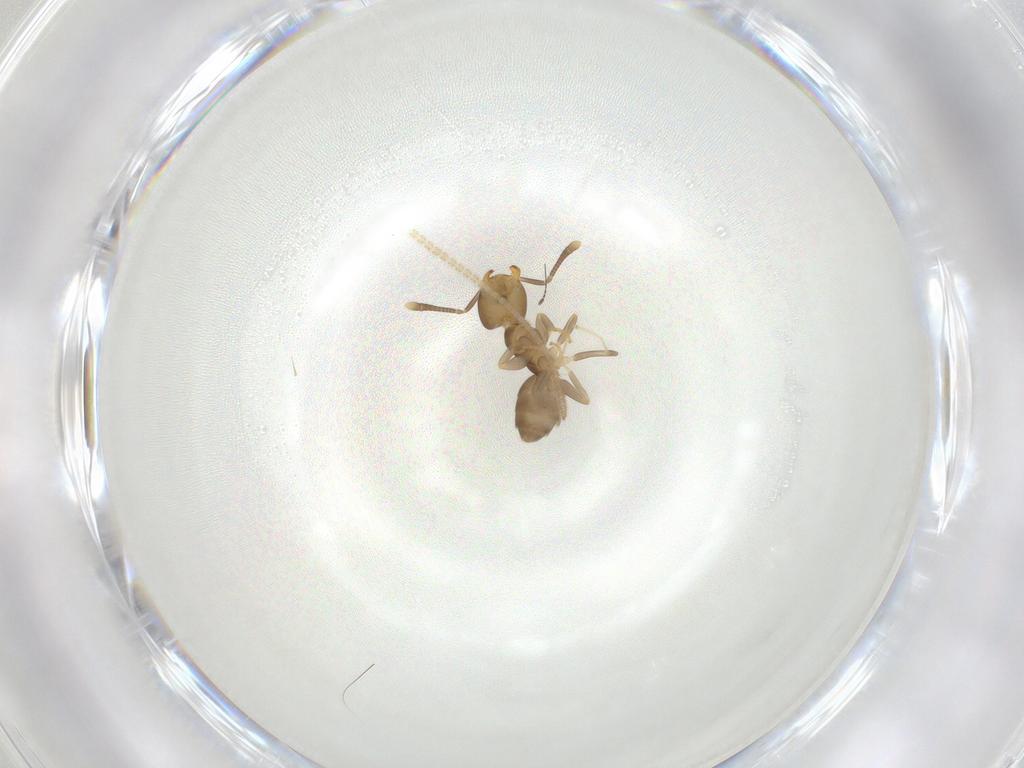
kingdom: Animalia
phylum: Arthropoda
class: Insecta
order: Hymenoptera
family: Formicidae
